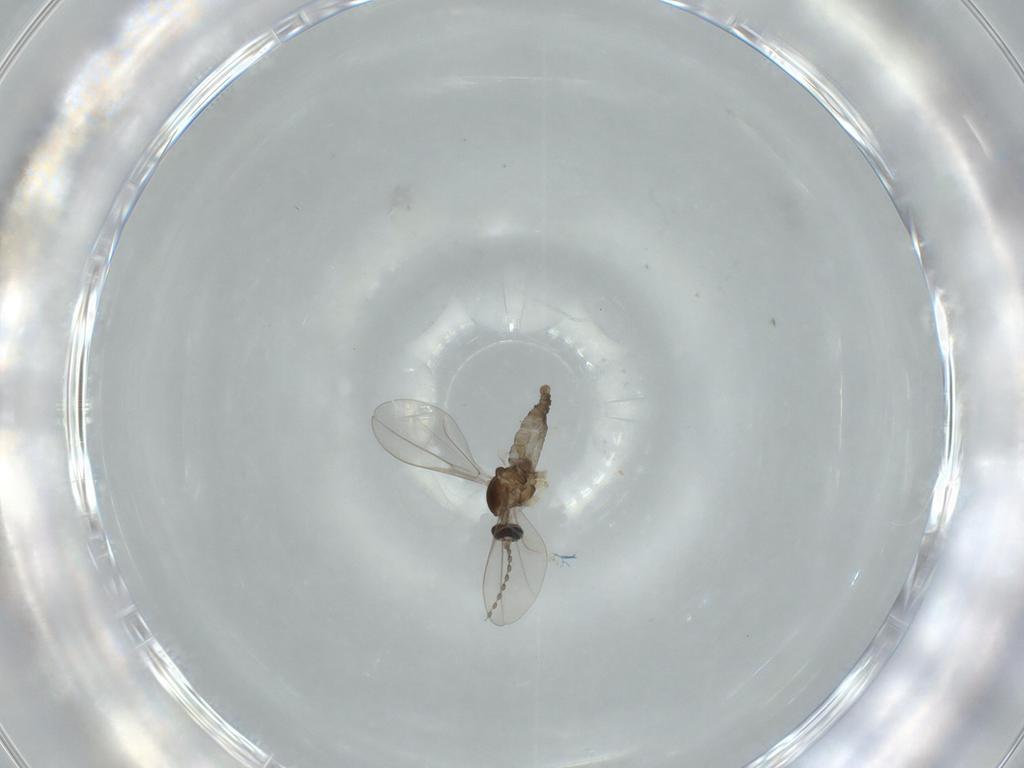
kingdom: Animalia
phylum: Arthropoda
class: Insecta
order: Diptera
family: Cecidomyiidae
